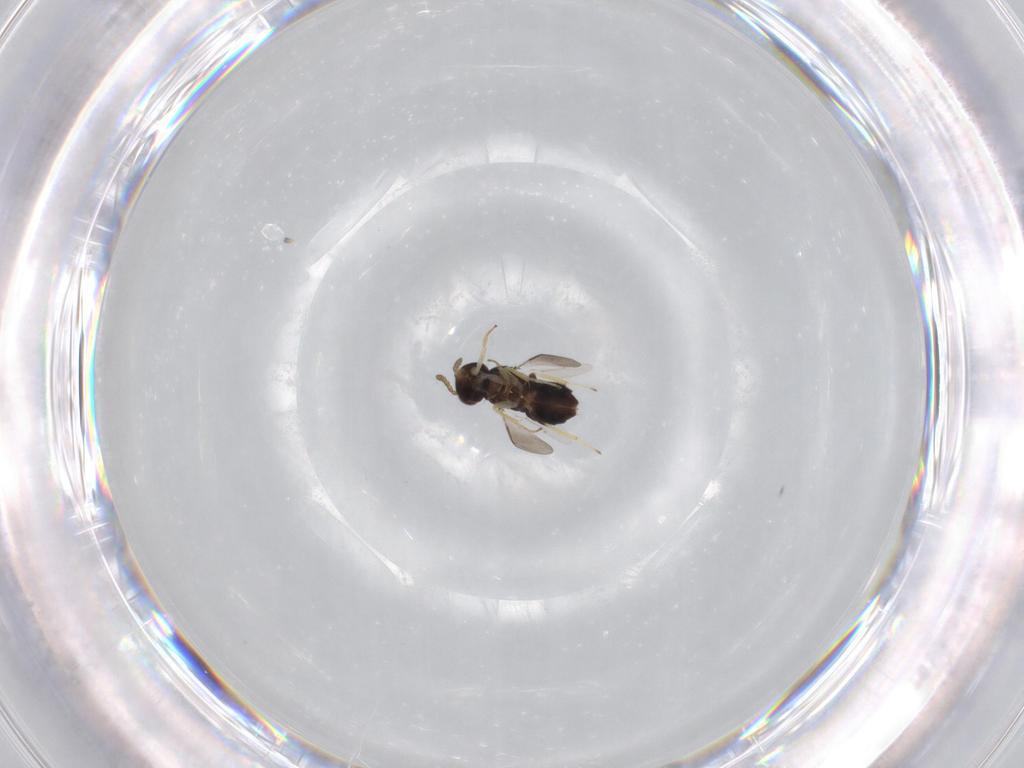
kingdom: Animalia
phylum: Arthropoda
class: Insecta
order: Hymenoptera
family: Aphelinidae
